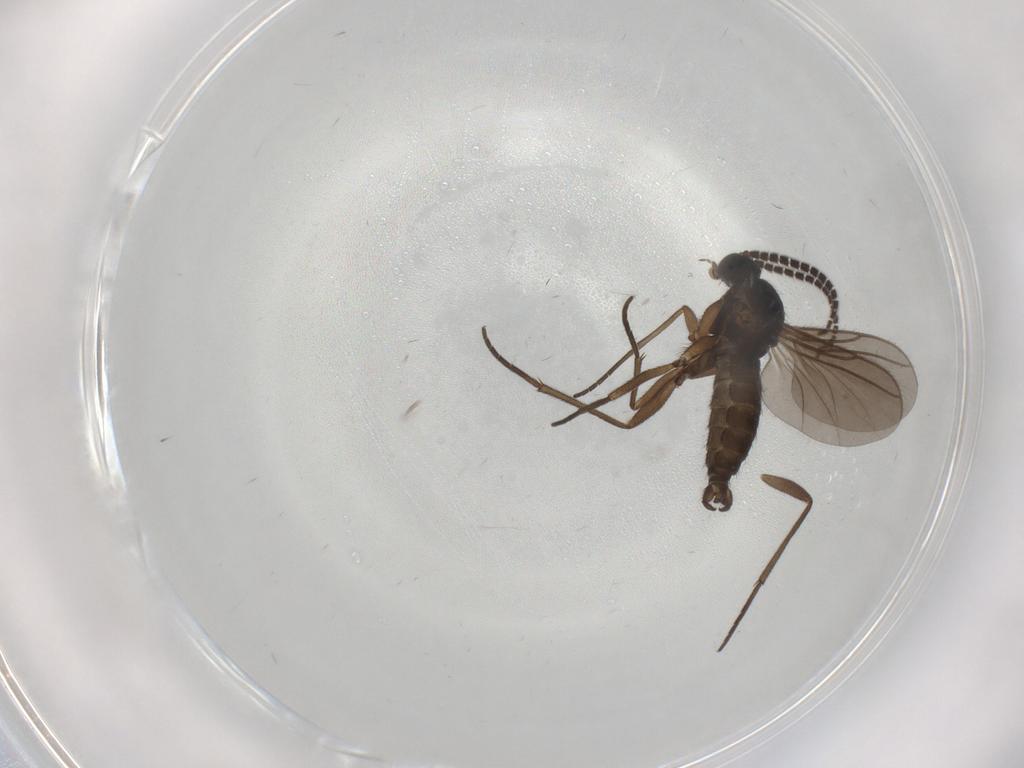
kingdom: Animalia
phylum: Arthropoda
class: Insecta
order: Diptera
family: Sciaridae
